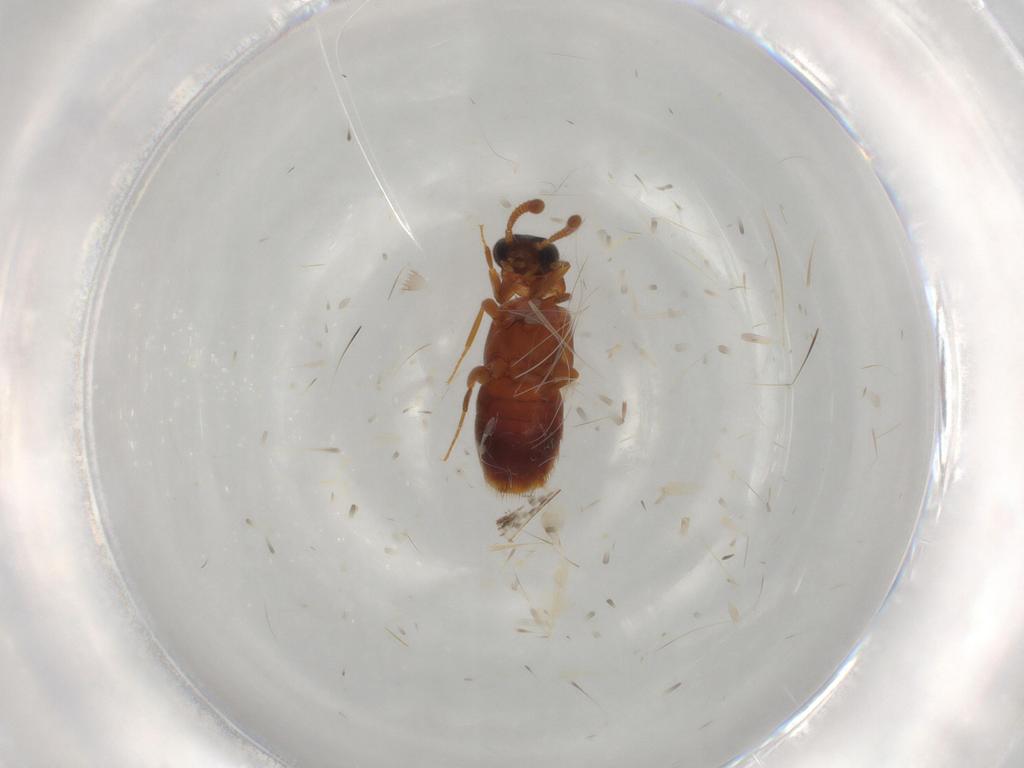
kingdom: Animalia
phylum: Arthropoda
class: Insecta
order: Coleoptera
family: Staphylinidae
